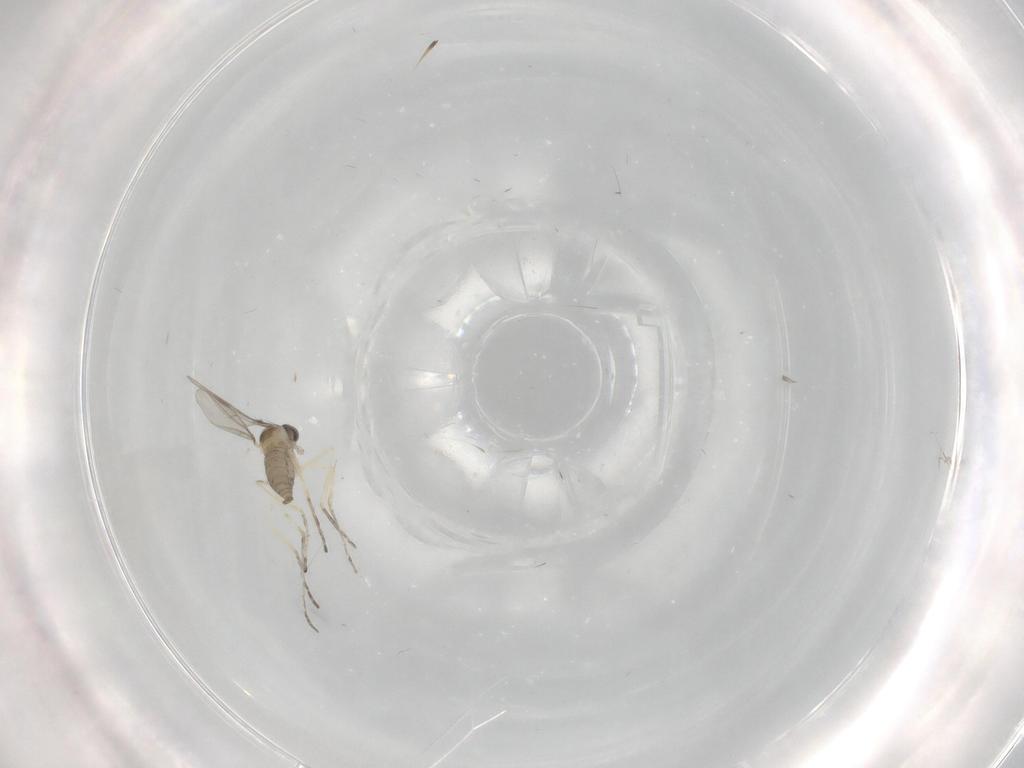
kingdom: Animalia
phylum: Arthropoda
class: Insecta
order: Diptera
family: Cecidomyiidae
